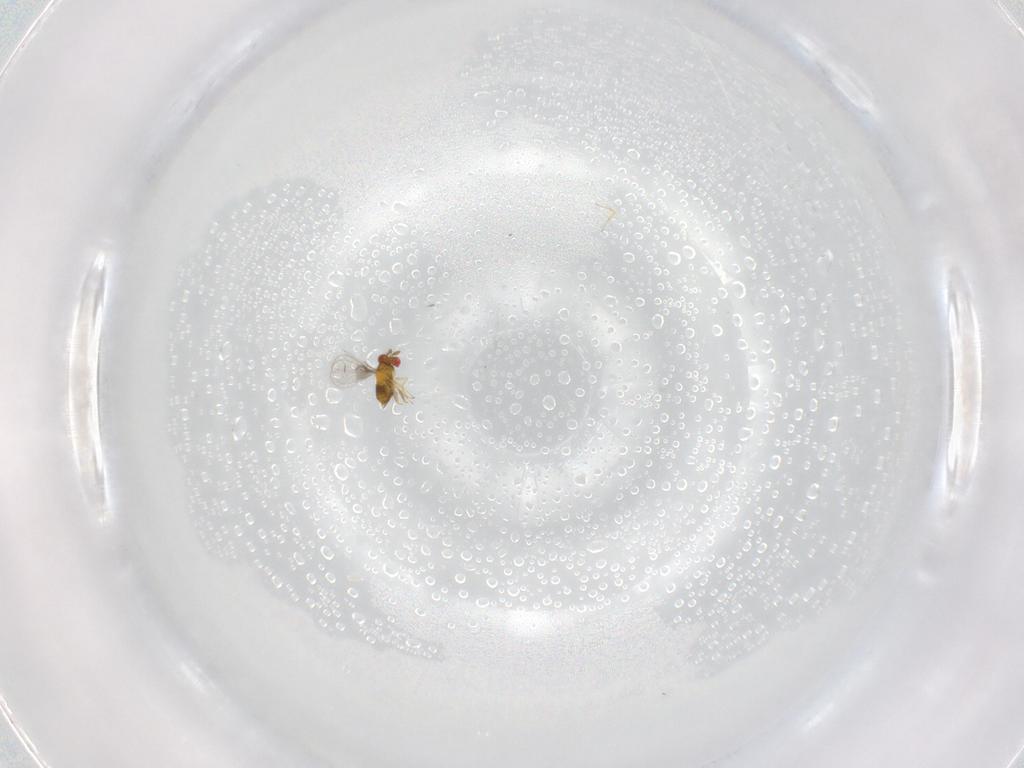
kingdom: Animalia
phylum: Arthropoda
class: Insecta
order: Hymenoptera
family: Trichogrammatidae
